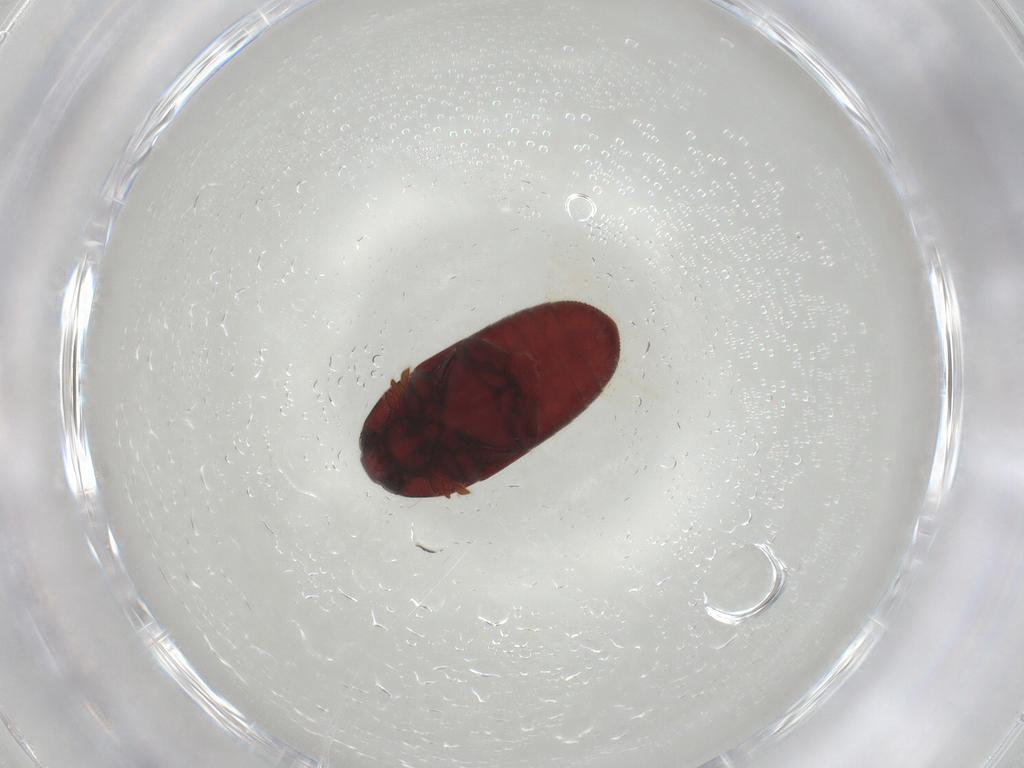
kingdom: Animalia
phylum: Arthropoda
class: Insecta
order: Coleoptera
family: Throscidae
